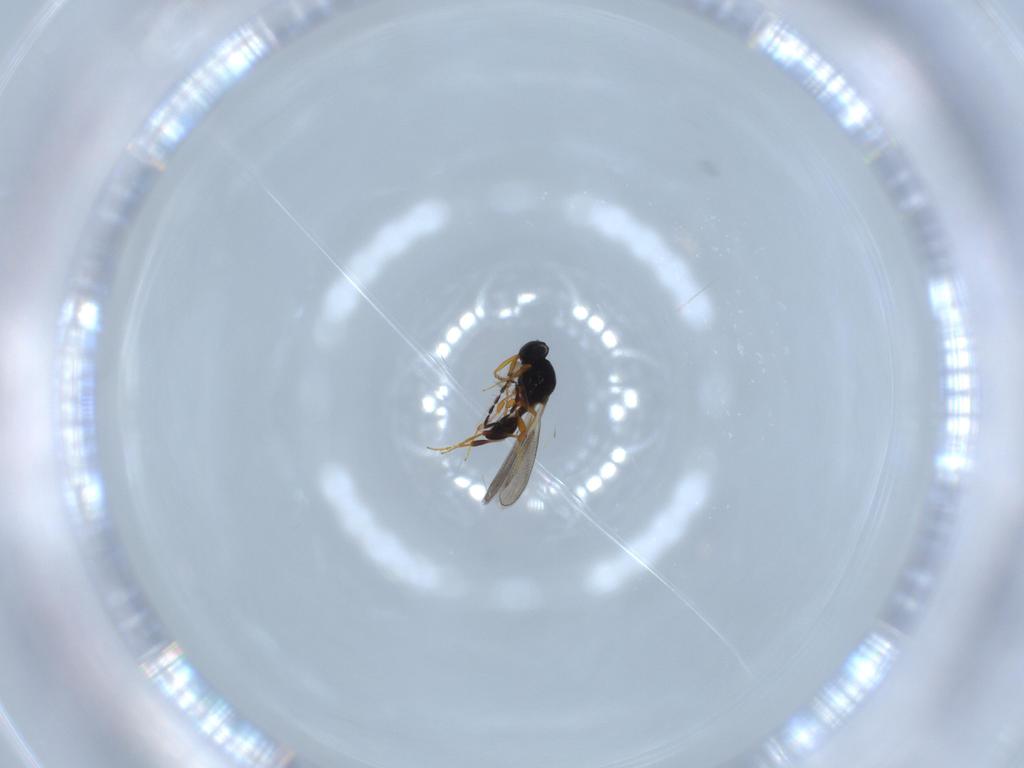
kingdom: Animalia
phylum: Arthropoda
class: Insecta
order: Hymenoptera
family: Platygastridae
